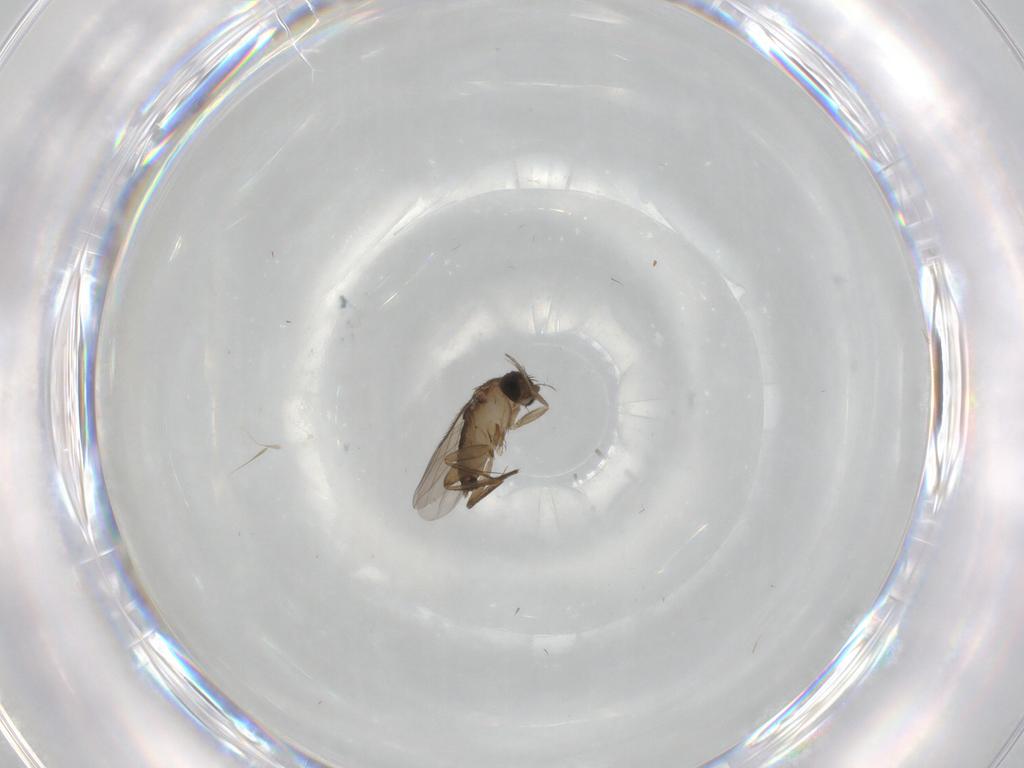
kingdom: Animalia
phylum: Arthropoda
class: Insecta
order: Diptera
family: Phoridae
